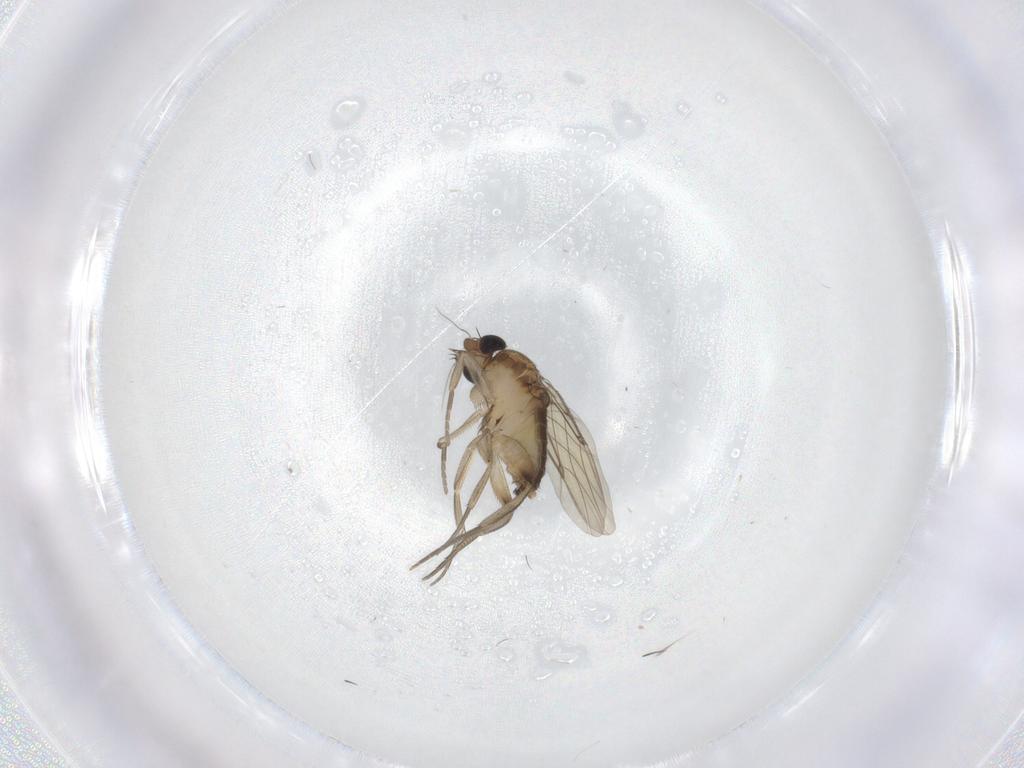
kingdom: Animalia
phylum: Arthropoda
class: Insecta
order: Diptera
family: Phoridae
